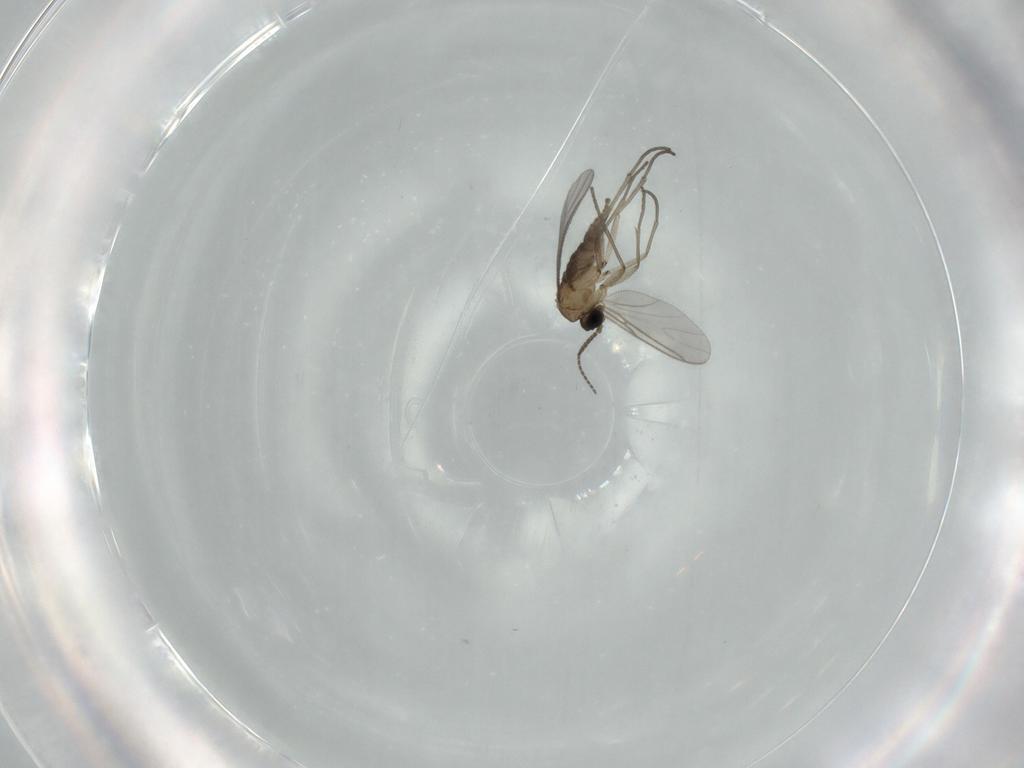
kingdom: Animalia
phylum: Arthropoda
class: Insecta
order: Diptera
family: Sciaridae
